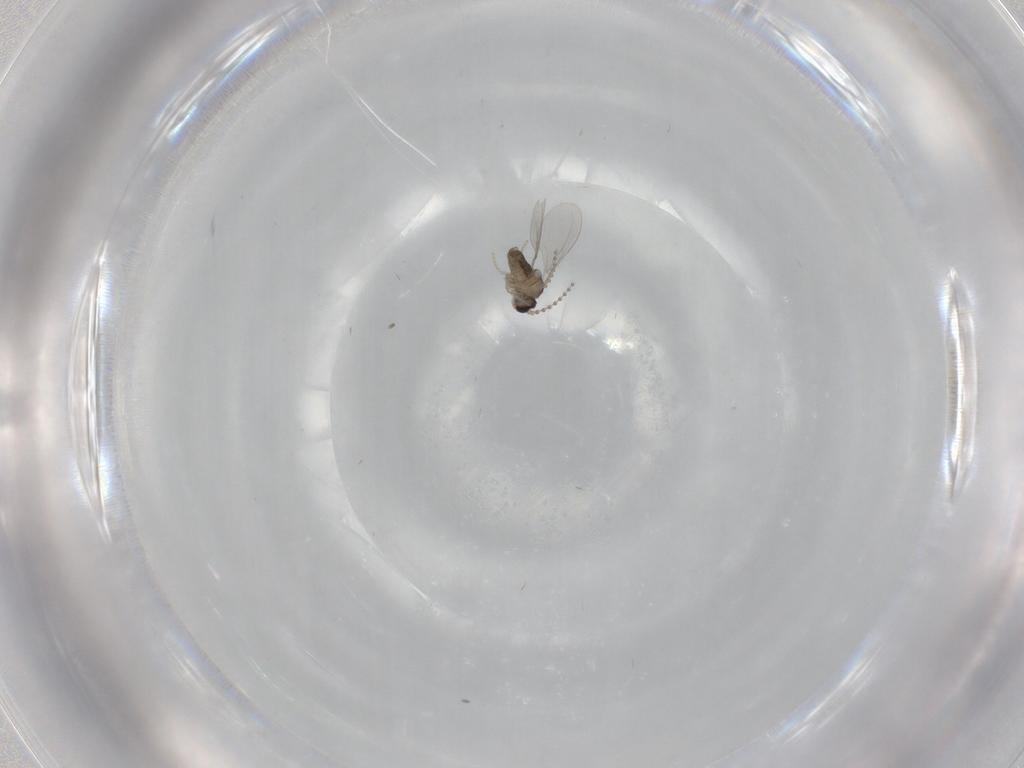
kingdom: Animalia
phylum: Arthropoda
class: Insecta
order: Diptera
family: Cecidomyiidae
